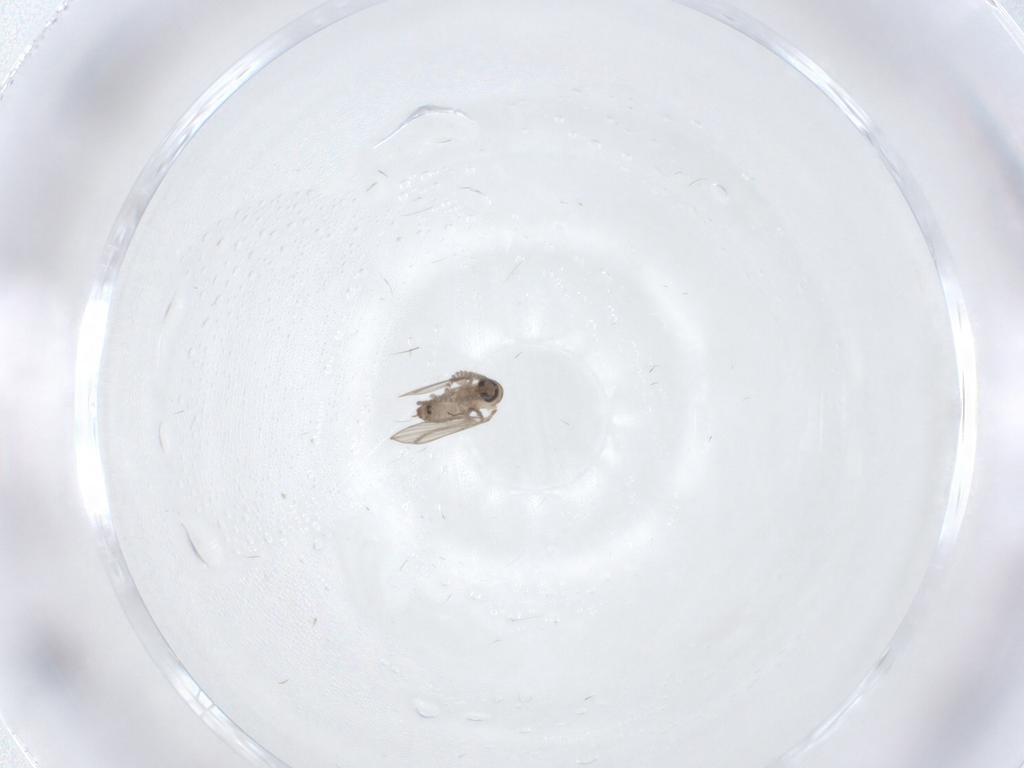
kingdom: Animalia
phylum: Arthropoda
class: Insecta
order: Diptera
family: Psychodidae
